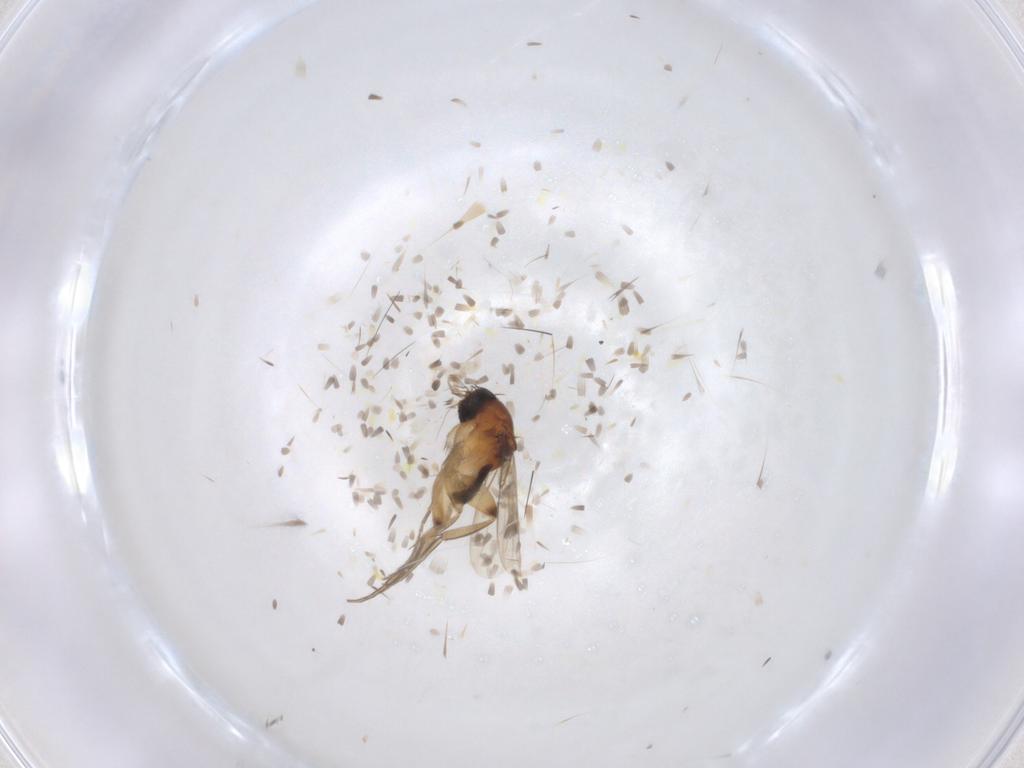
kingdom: Animalia
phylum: Arthropoda
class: Insecta
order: Diptera
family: Phoridae
